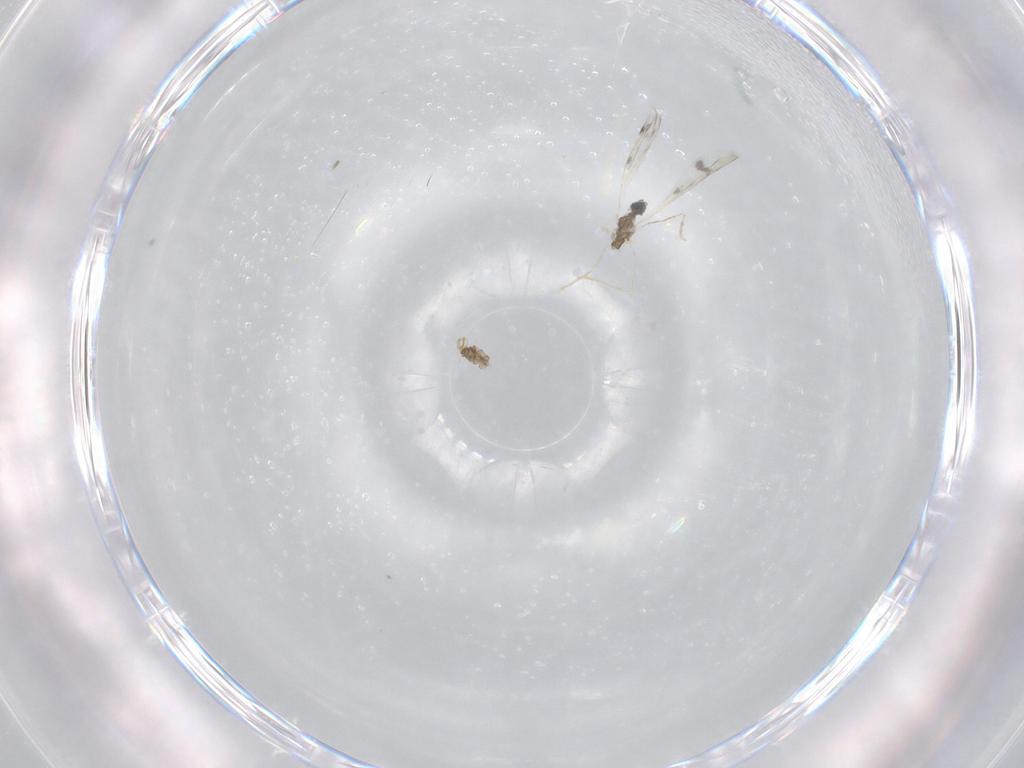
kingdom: Animalia
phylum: Arthropoda
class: Insecta
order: Diptera
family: Cecidomyiidae
